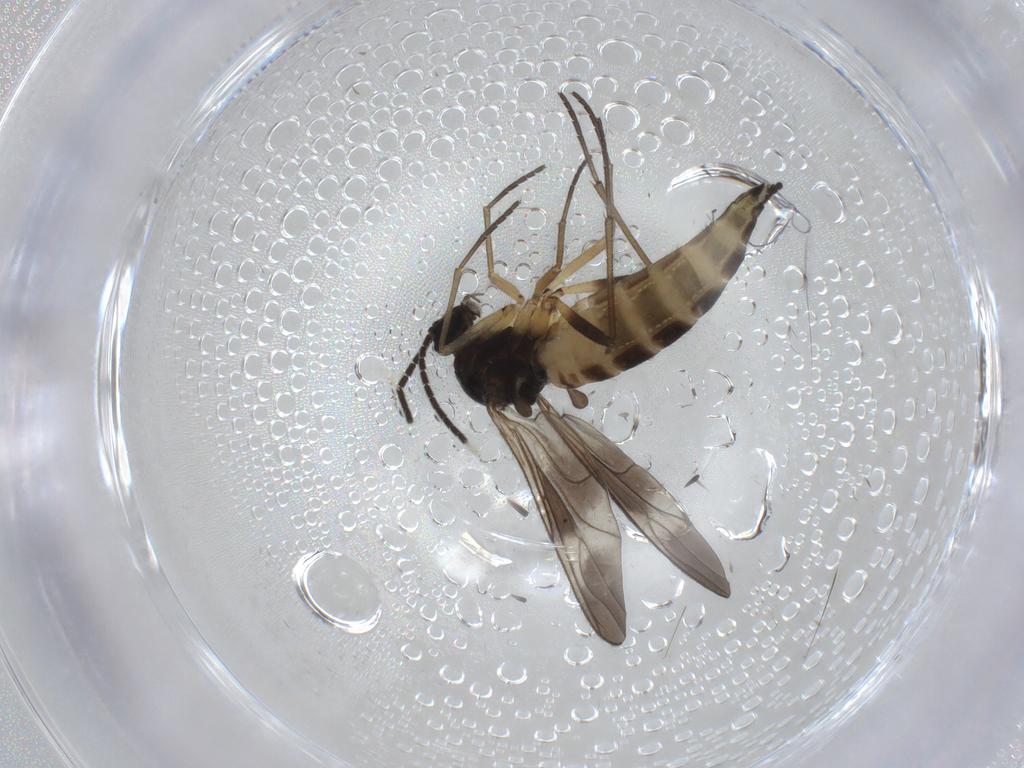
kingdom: Animalia
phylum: Arthropoda
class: Insecta
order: Diptera
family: Sciaridae
